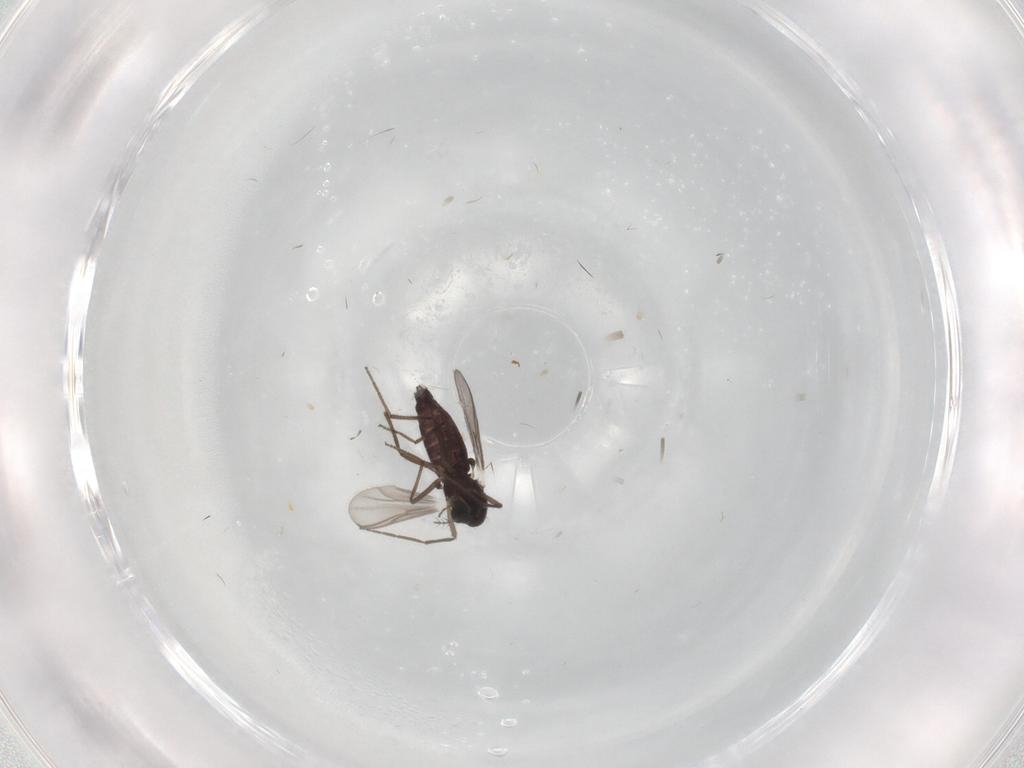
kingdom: Animalia
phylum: Arthropoda
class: Insecta
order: Diptera
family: Chironomidae
